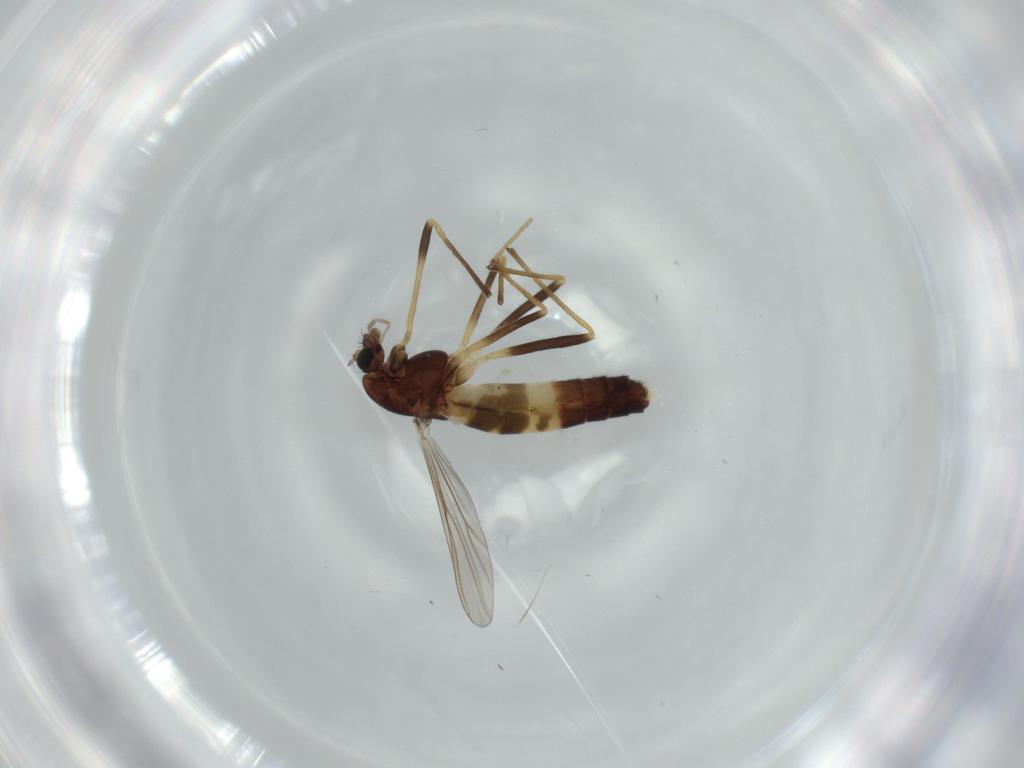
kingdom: Animalia
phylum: Arthropoda
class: Insecta
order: Diptera
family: Chironomidae
